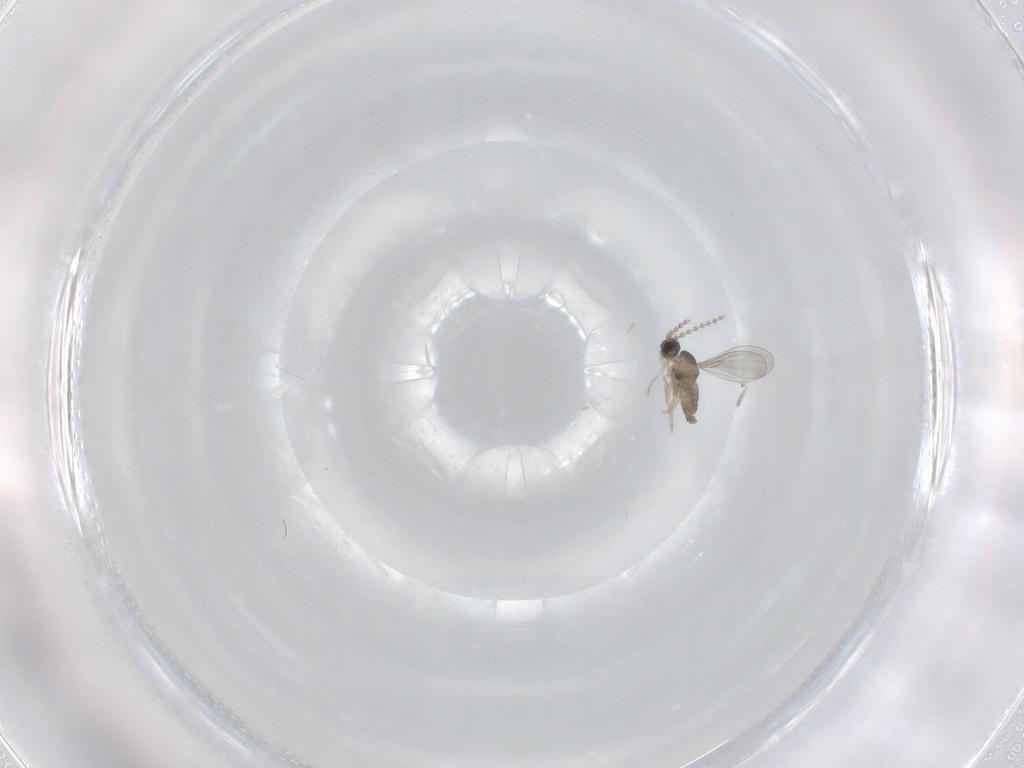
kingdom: Animalia
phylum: Arthropoda
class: Insecta
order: Diptera
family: Cecidomyiidae
